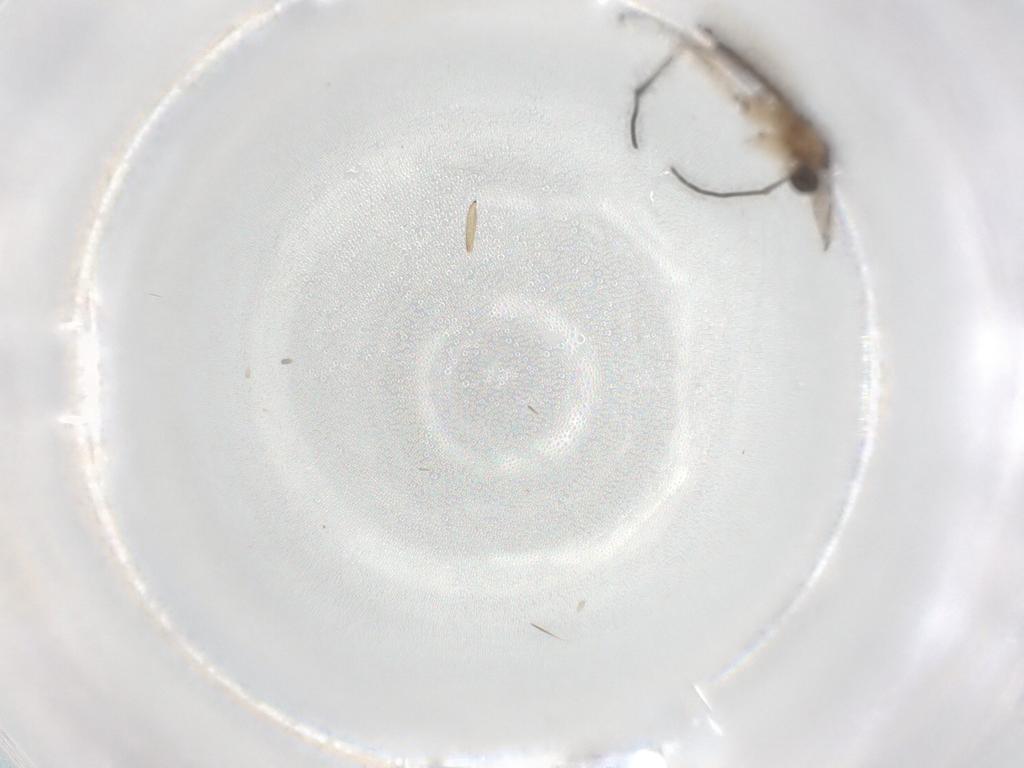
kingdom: Animalia
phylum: Arthropoda
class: Insecta
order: Diptera
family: Sciaridae
